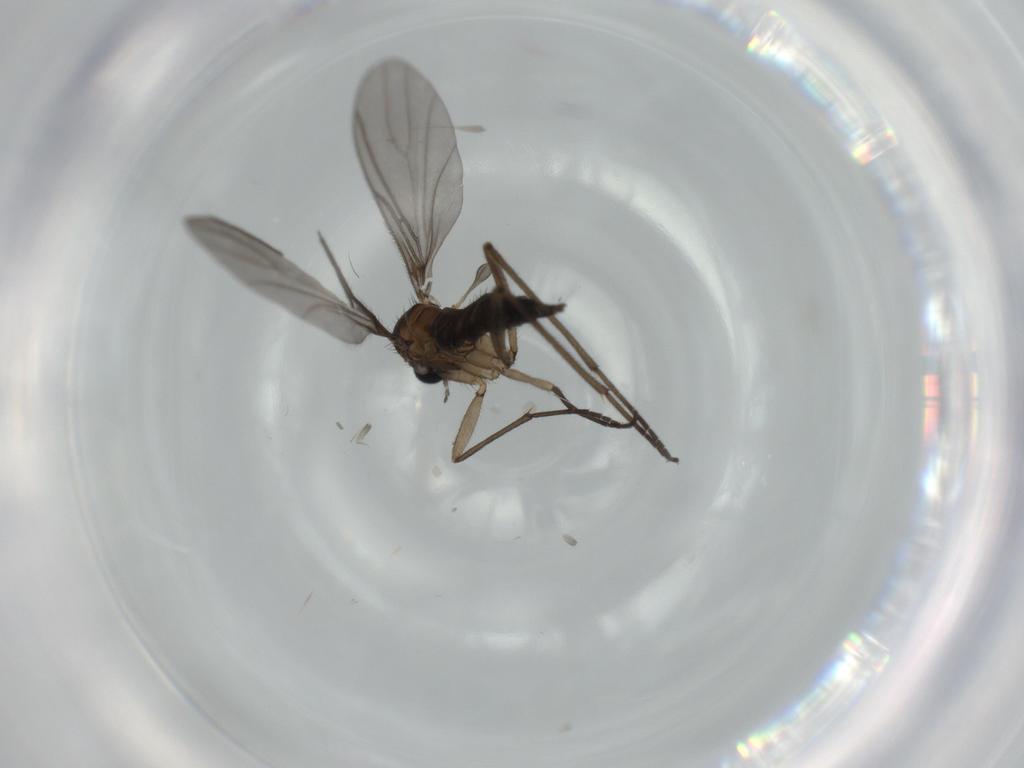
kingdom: Animalia
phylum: Arthropoda
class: Insecta
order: Diptera
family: Sciaridae
